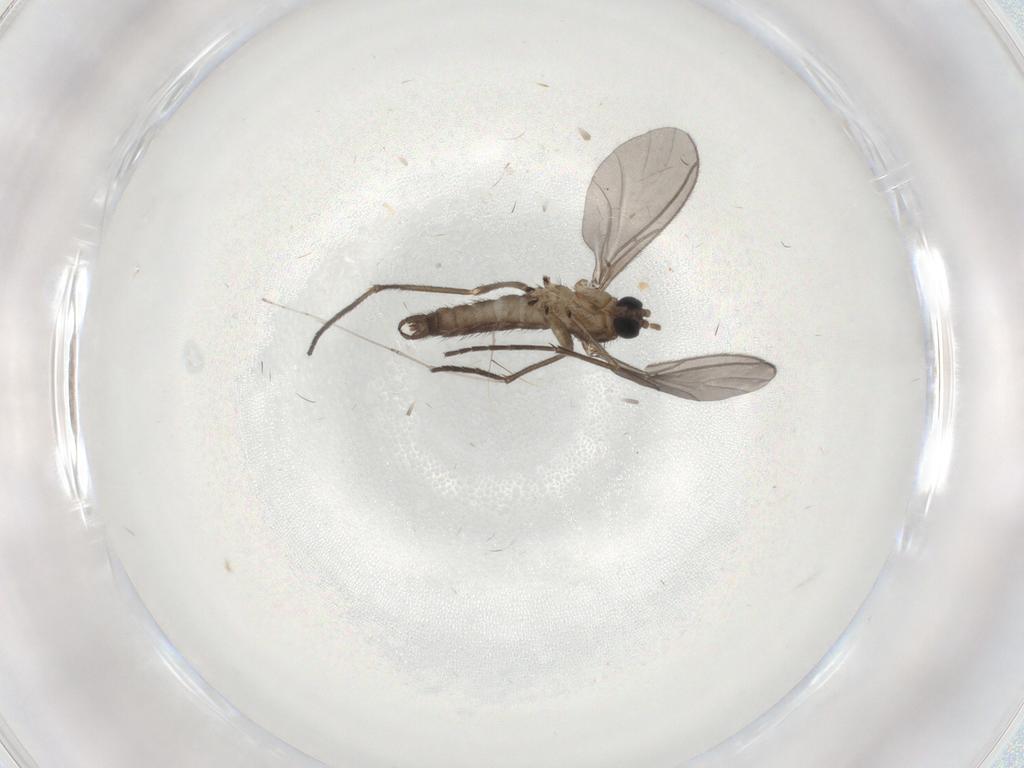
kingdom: Animalia
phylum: Arthropoda
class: Insecta
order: Diptera
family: Sciaridae
